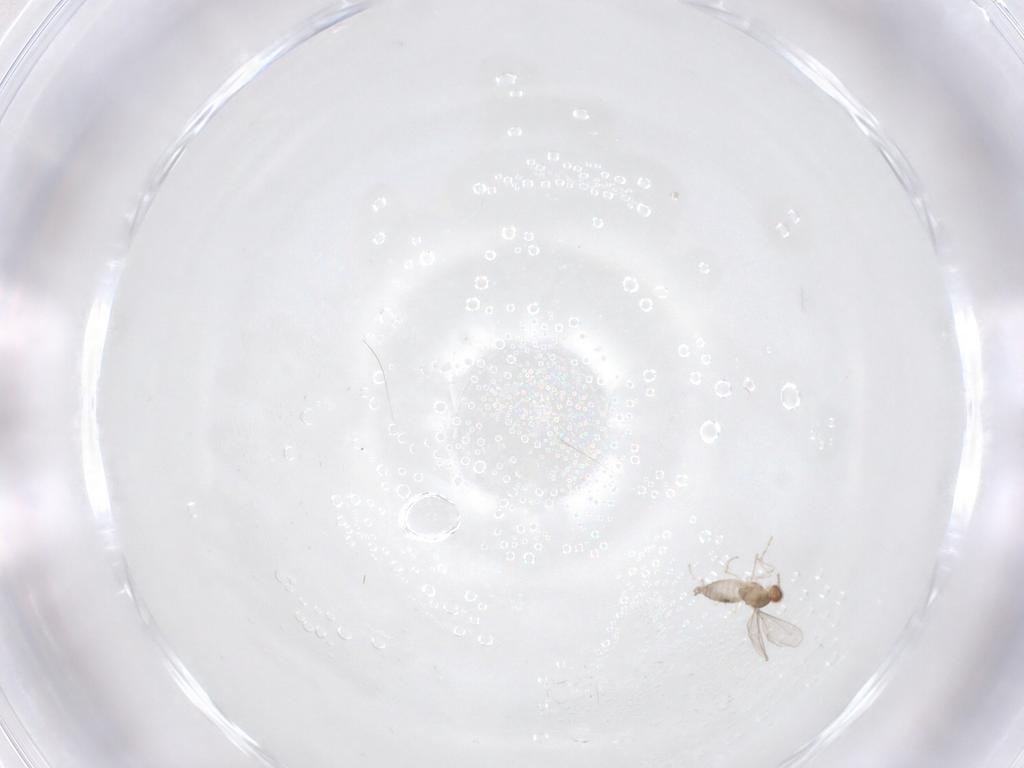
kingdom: Animalia
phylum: Arthropoda
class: Insecta
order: Diptera
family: Cecidomyiidae
